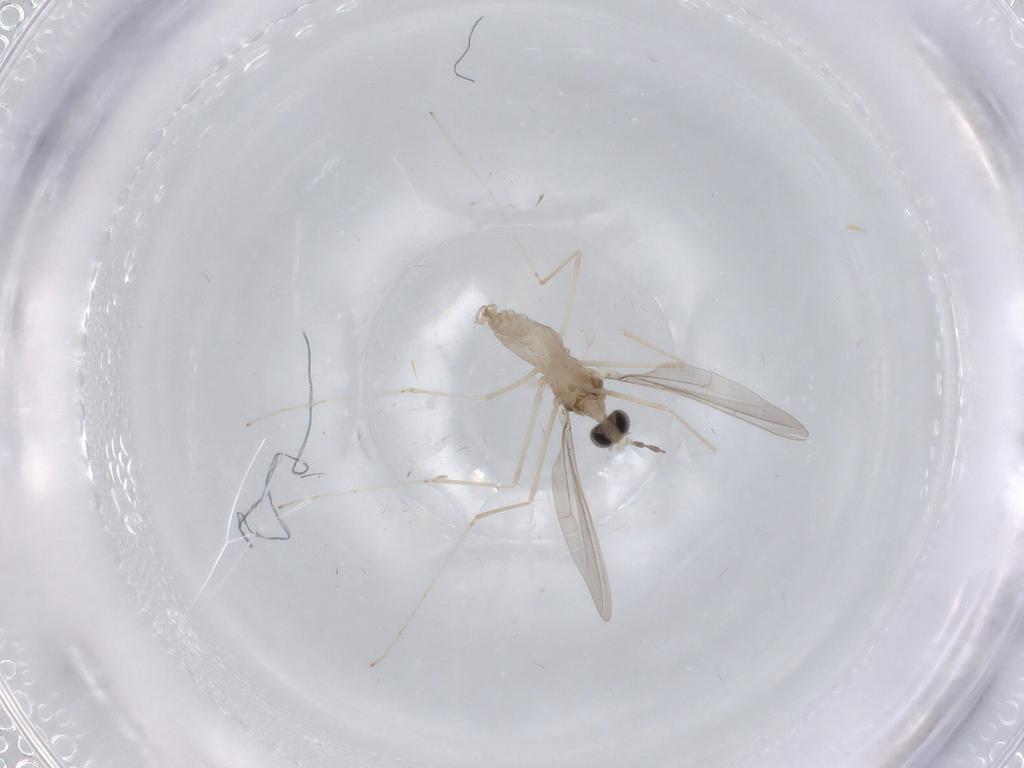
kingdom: Animalia
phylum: Arthropoda
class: Insecta
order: Diptera
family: Cecidomyiidae
